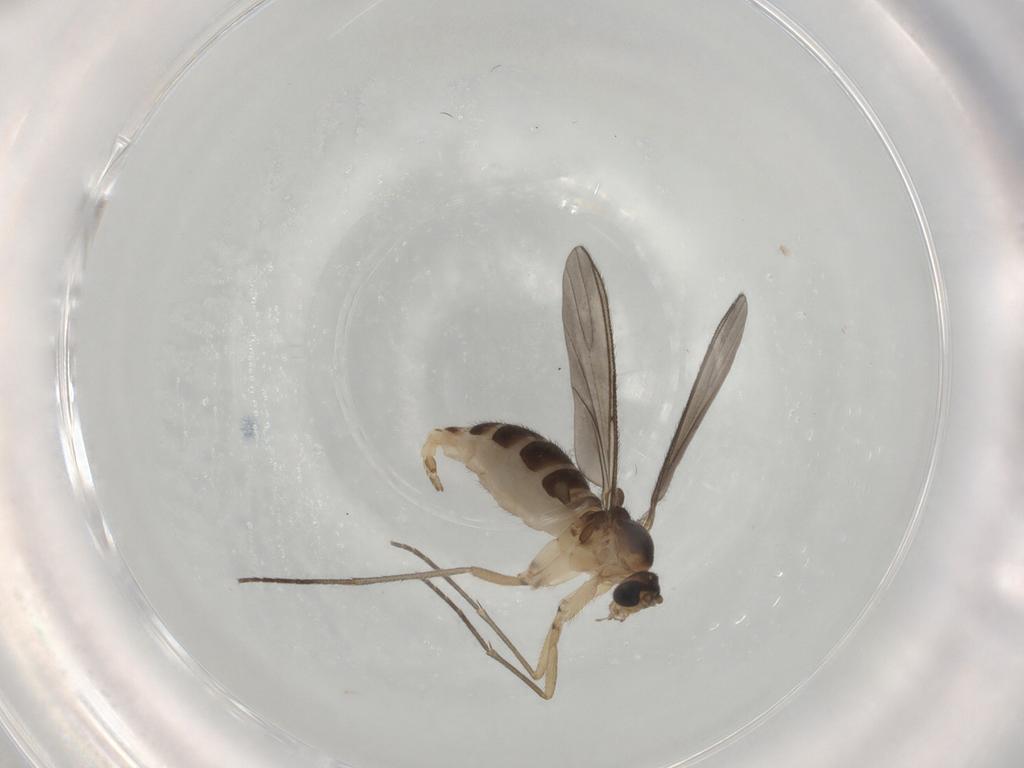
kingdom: Animalia
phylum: Arthropoda
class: Insecta
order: Diptera
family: Sciaridae
